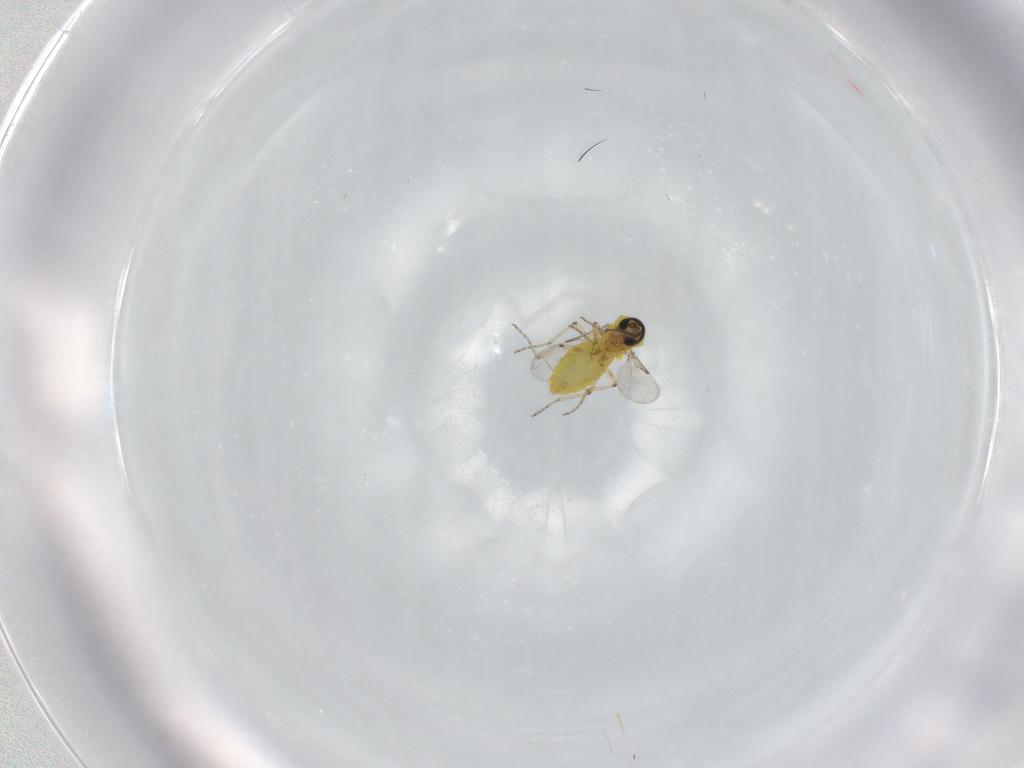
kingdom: Animalia
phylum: Arthropoda
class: Insecta
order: Diptera
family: Ceratopogonidae
